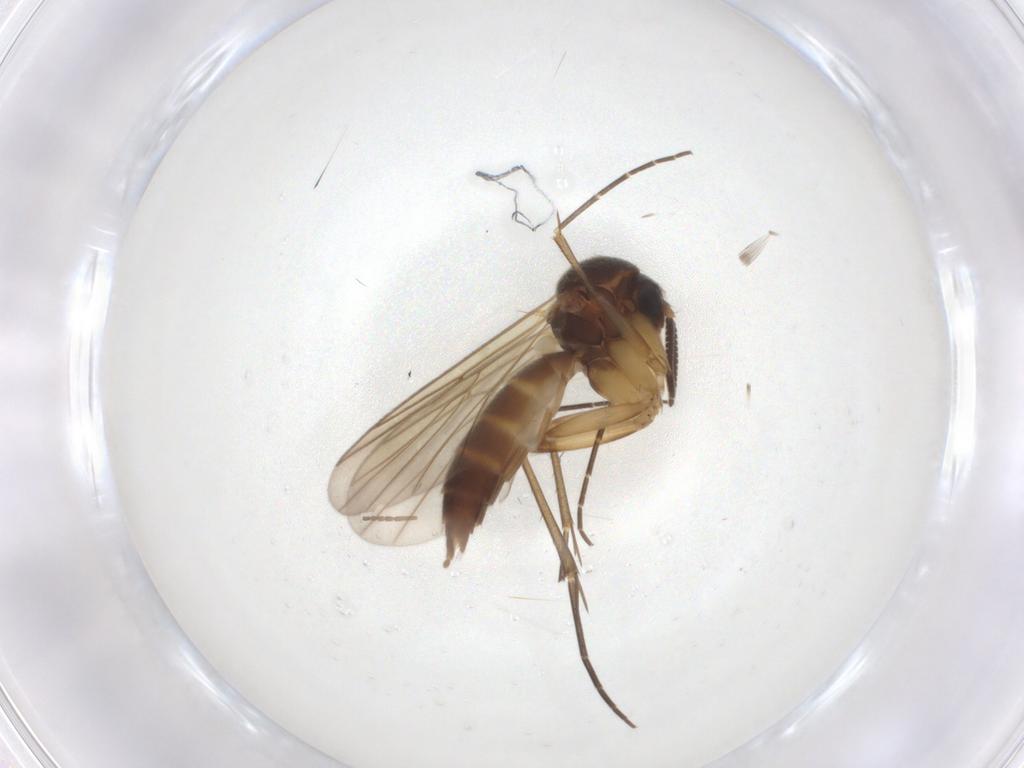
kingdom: Animalia
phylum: Arthropoda
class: Insecta
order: Diptera
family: Mycetophilidae
